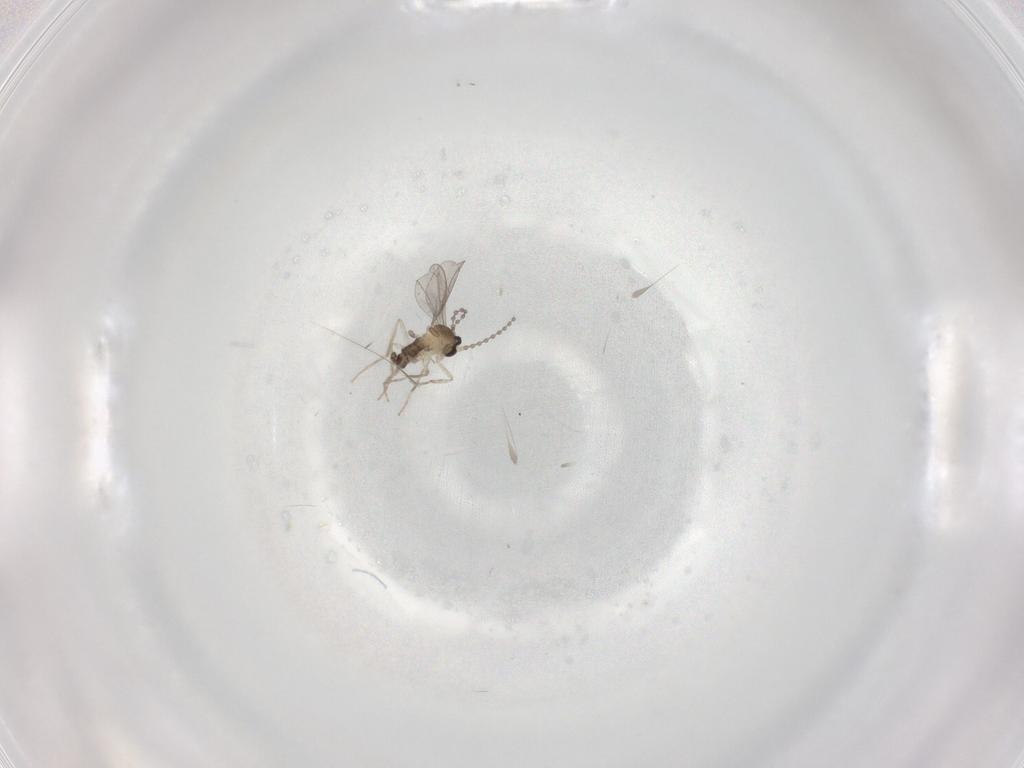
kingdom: Animalia
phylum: Arthropoda
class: Insecta
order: Diptera
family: Cecidomyiidae
